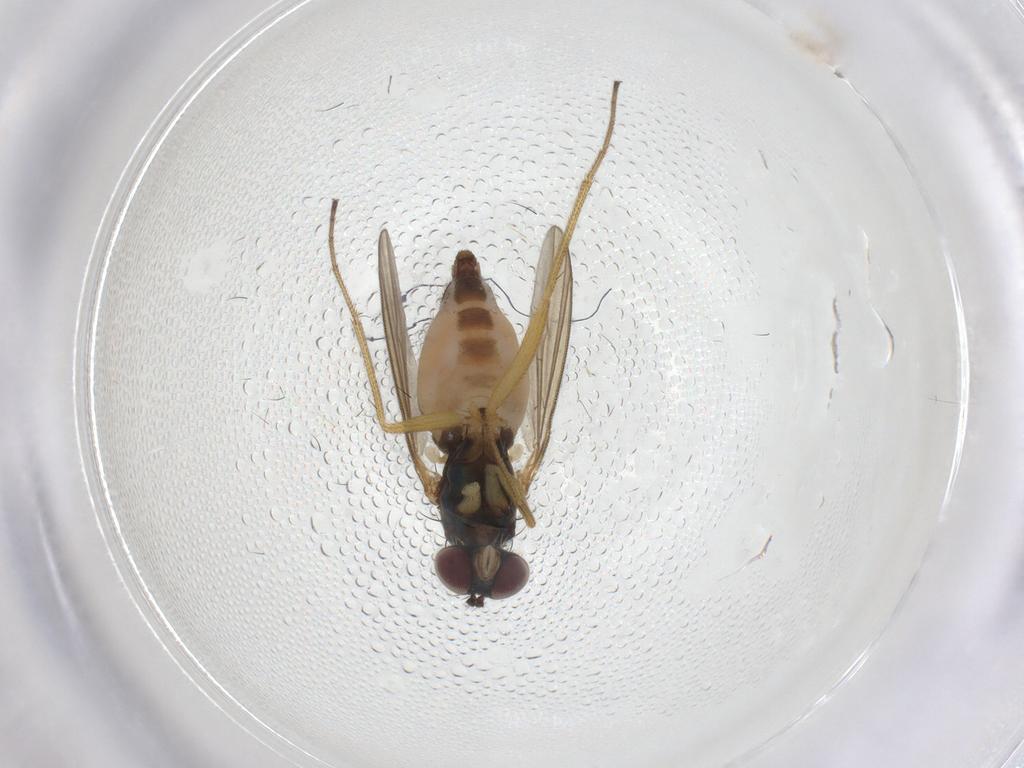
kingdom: Animalia
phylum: Arthropoda
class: Insecta
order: Diptera
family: Dolichopodidae
